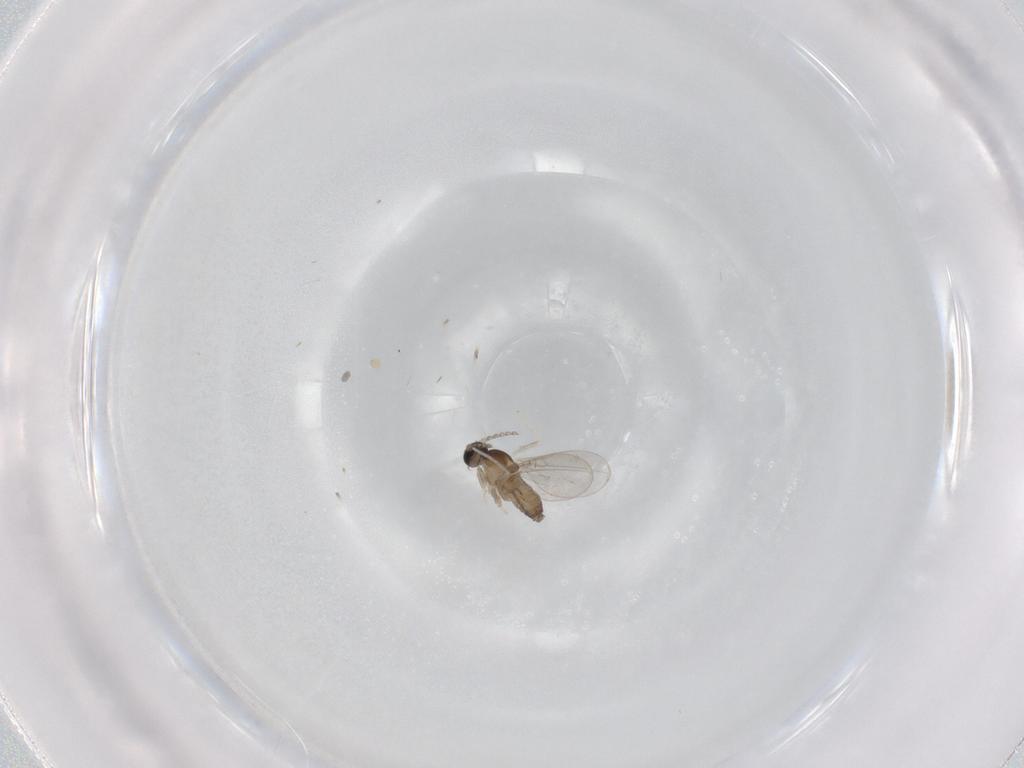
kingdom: Animalia
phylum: Arthropoda
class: Insecta
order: Diptera
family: Cecidomyiidae
